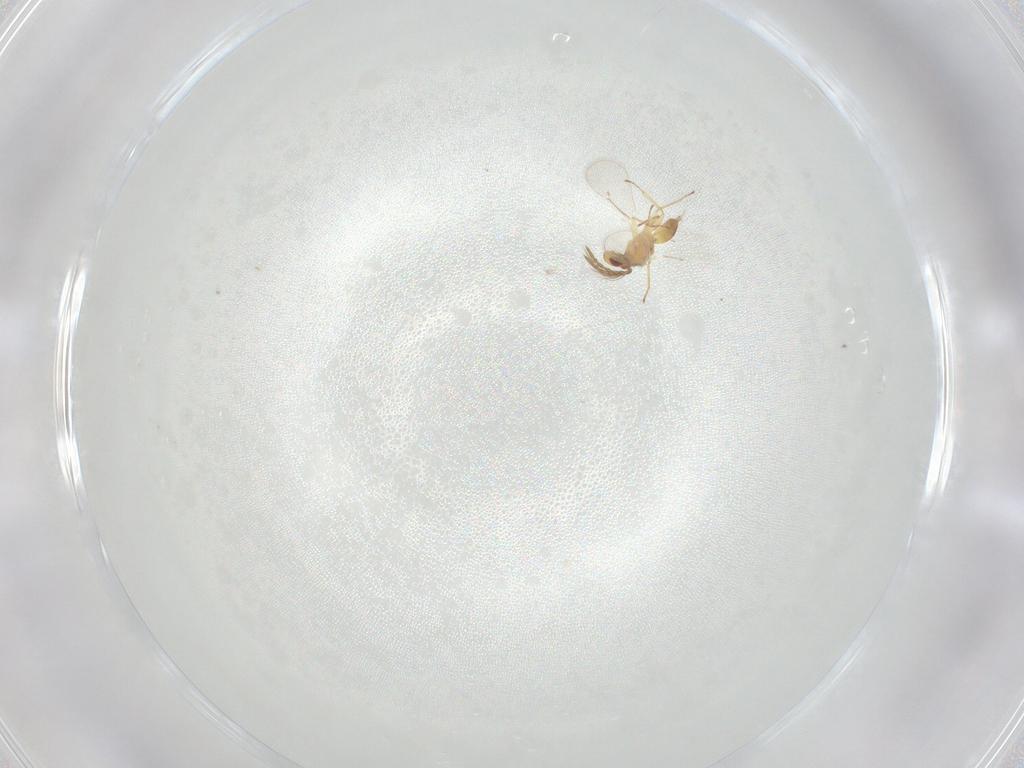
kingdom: Animalia
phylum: Arthropoda
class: Insecta
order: Hymenoptera
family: Eulophidae
